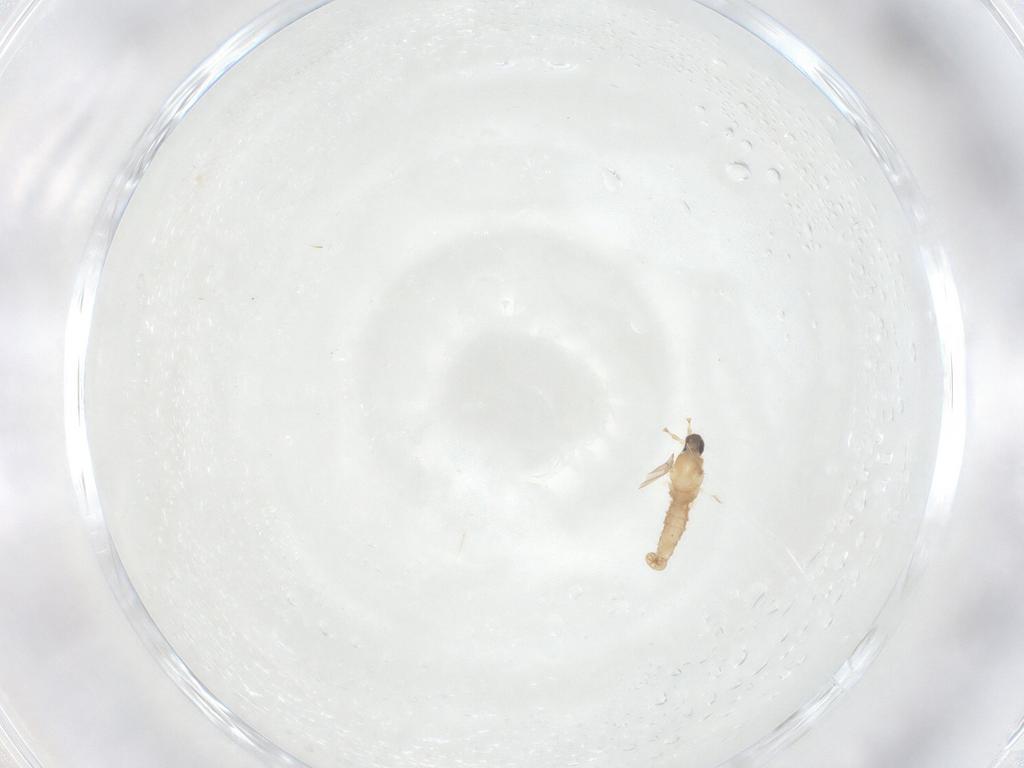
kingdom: Animalia
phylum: Arthropoda
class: Insecta
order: Diptera
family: Cecidomyiidae
